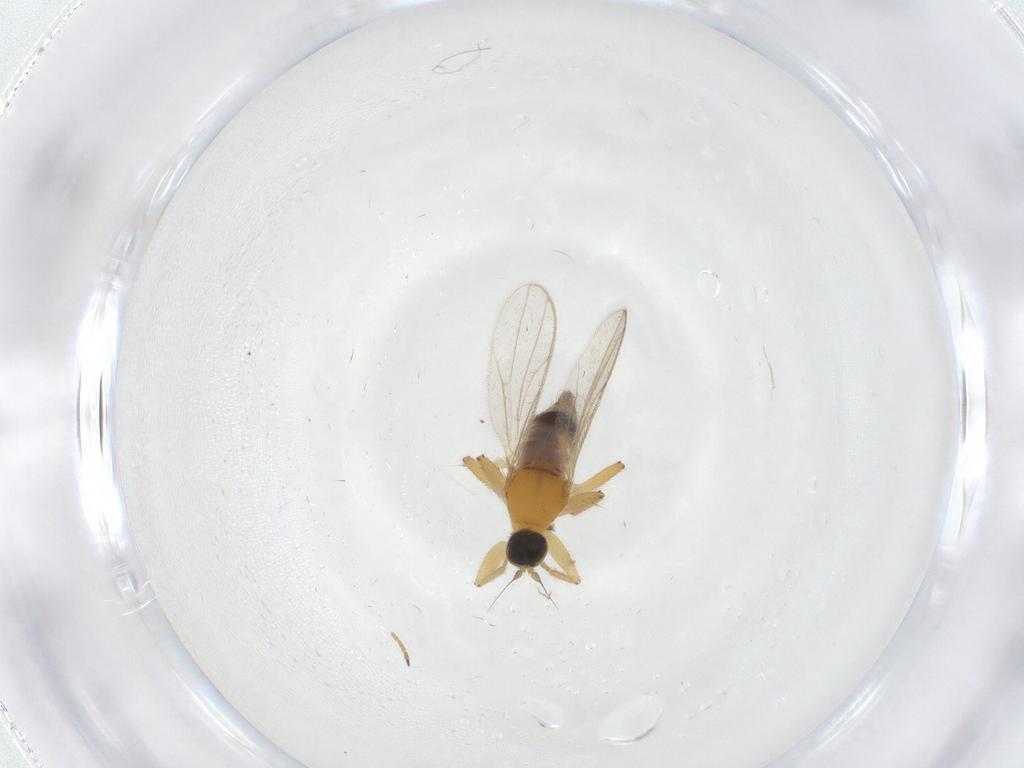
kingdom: Animalia
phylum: Arthropoda
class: Insecta
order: Diptera
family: Hybotidae
